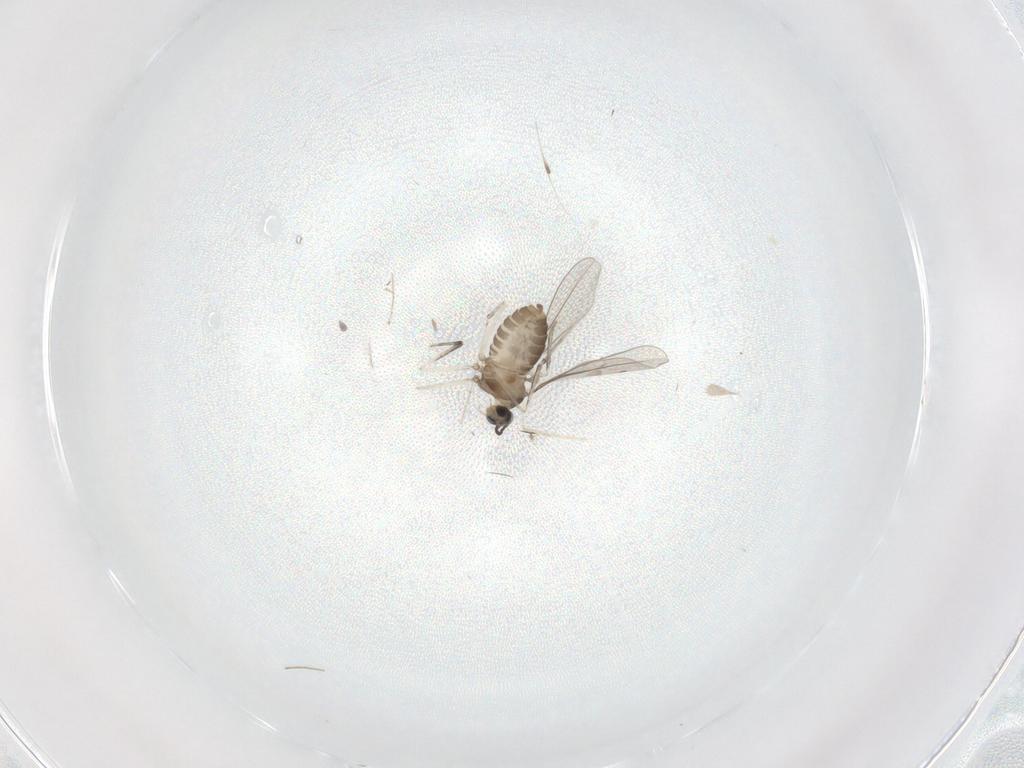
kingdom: Animalia
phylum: Arthropoda
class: Insecta
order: Diptera
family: Cecidomyiidae
